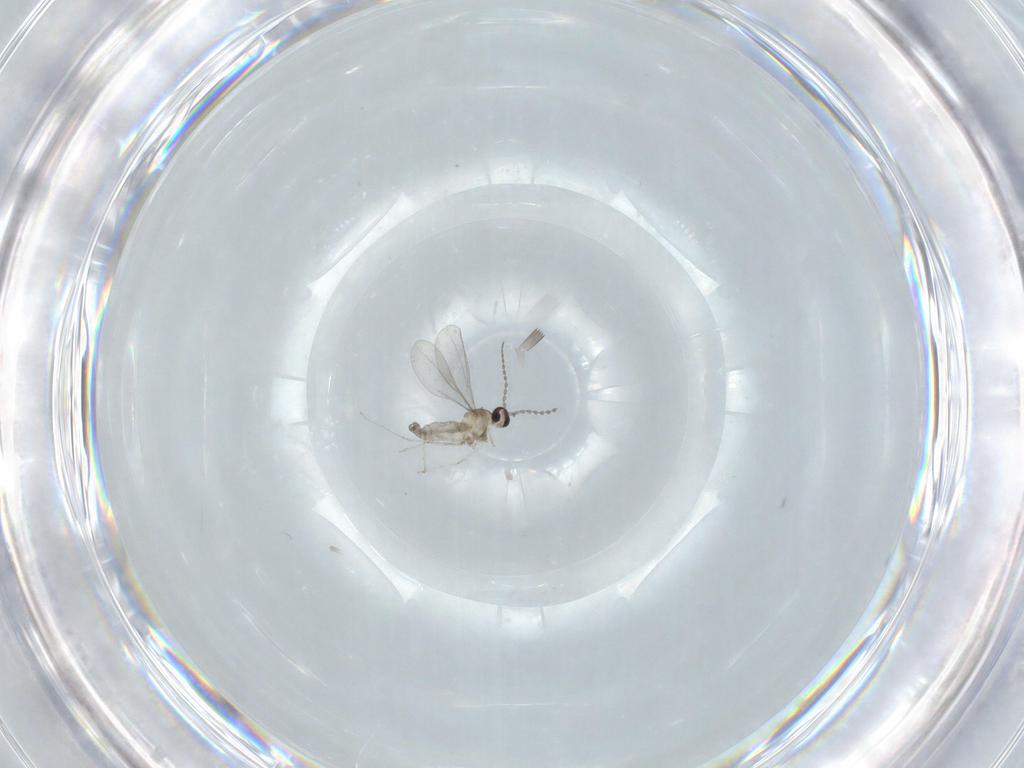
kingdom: Animalia
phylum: Arthropoda
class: Insecta
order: Diptera
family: Cecidomyiidae
